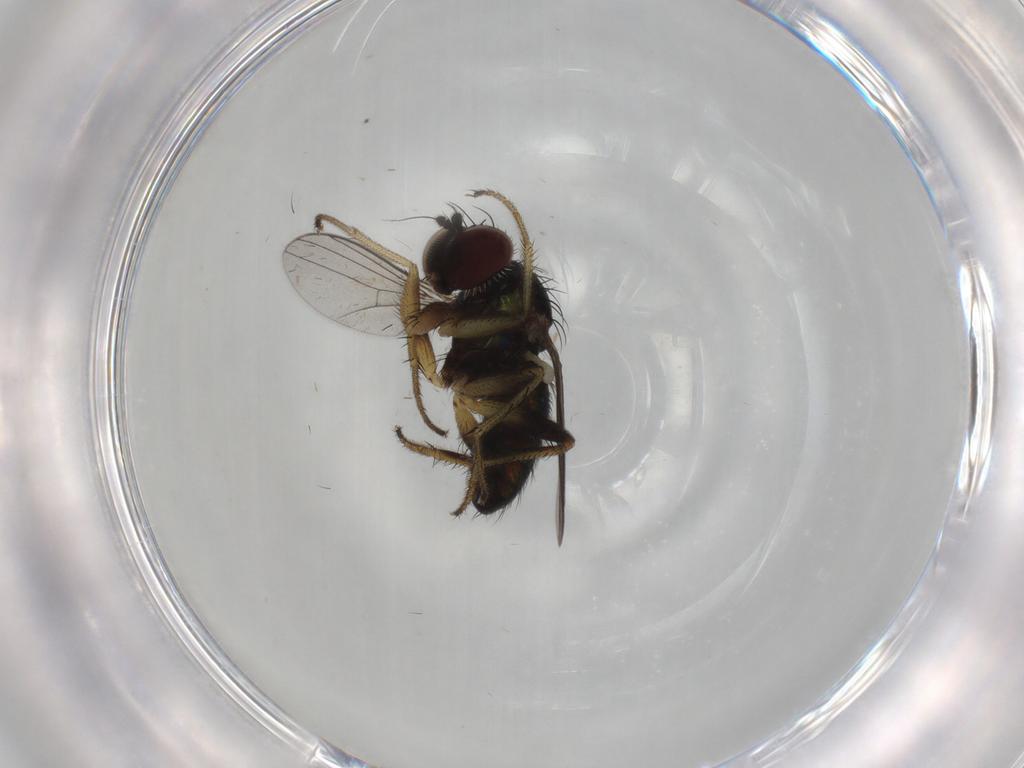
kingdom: Animalia
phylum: Arthropoda
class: Insecta
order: Diptera
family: Dolichopodidae
